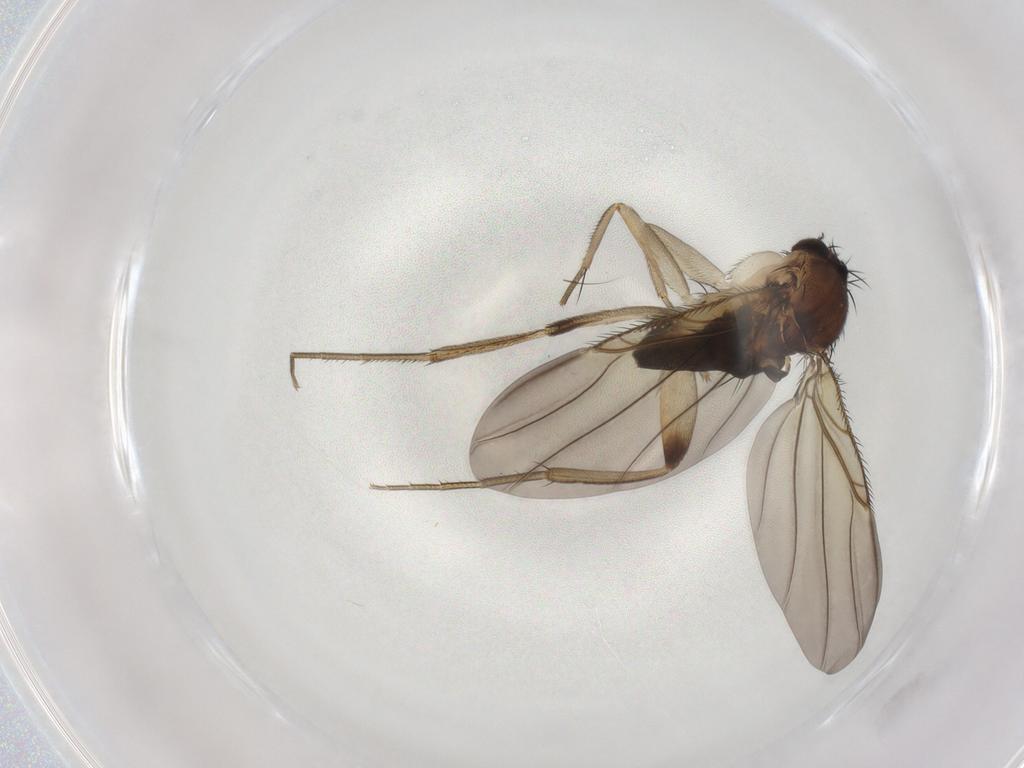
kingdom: Animalia
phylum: Arthropoda
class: Insecta
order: Diptera
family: Phoridae
